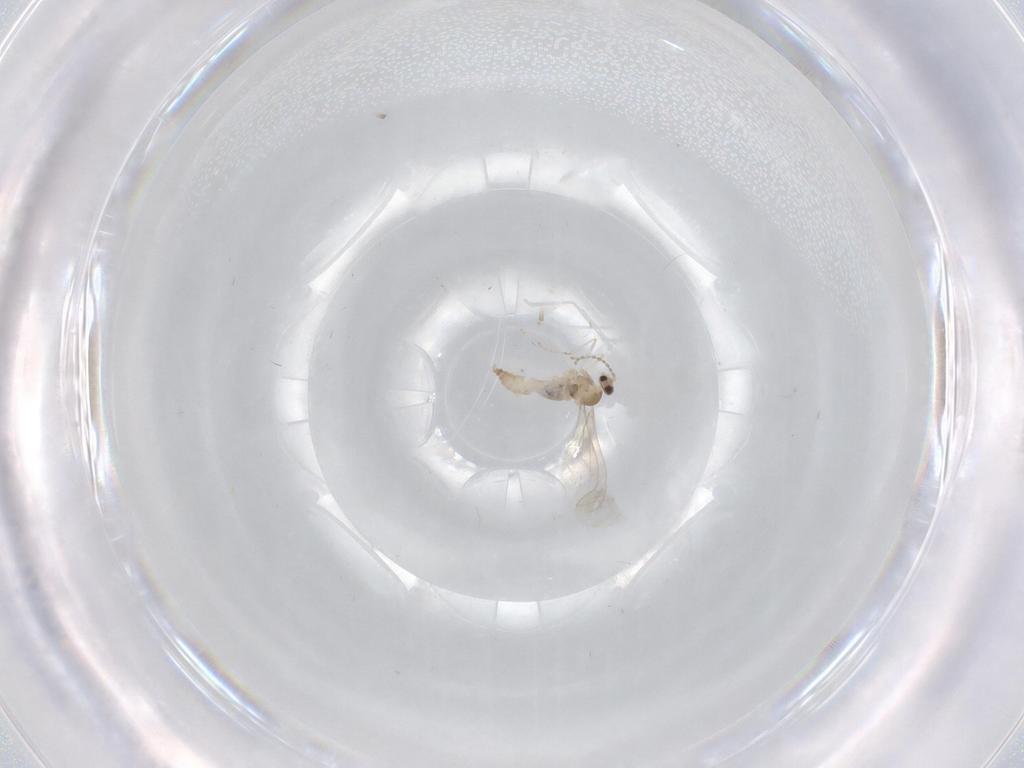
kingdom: Animalia
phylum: Arthropoda
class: Insecta
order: Diptera
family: Cecidomyiidae
